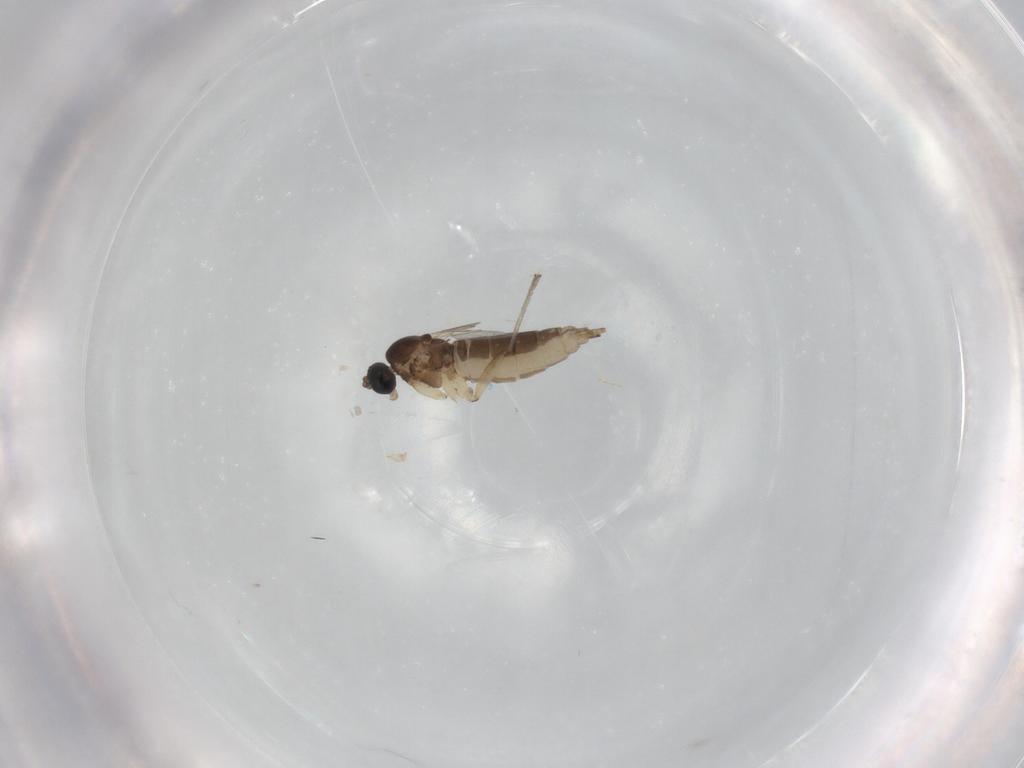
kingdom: Animalia
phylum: Arthropoda
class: Insecta
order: Diptera
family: Sciaridae
